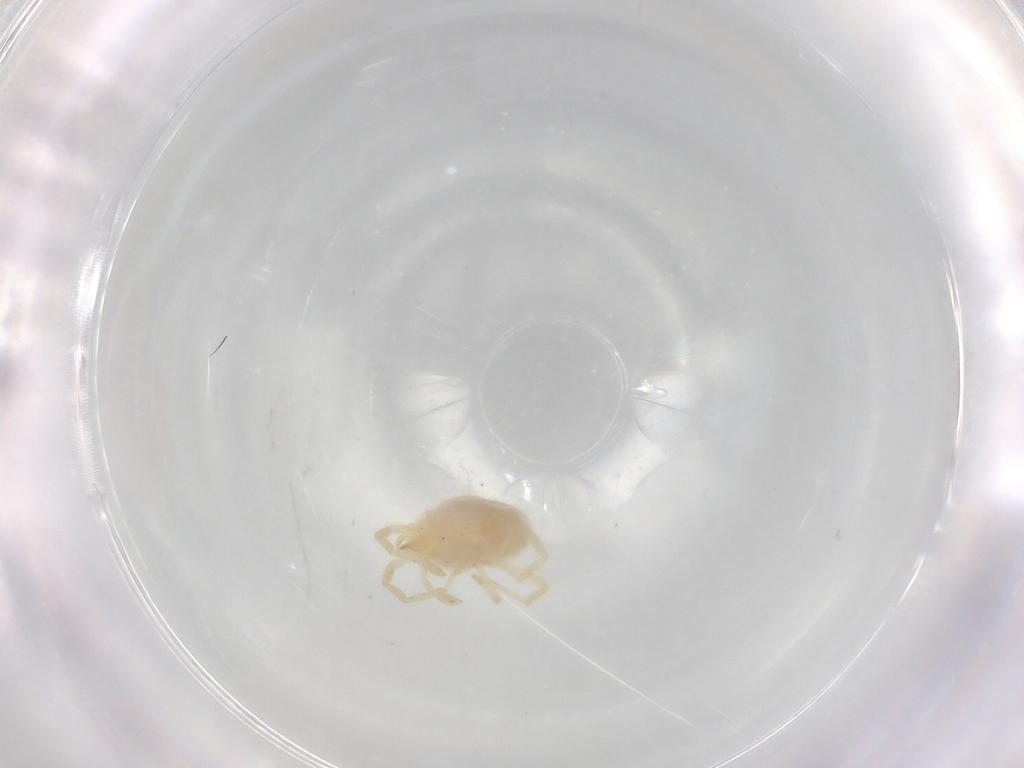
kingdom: Animalia
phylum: Arthropoda
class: Arachnida
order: Trombidiformes
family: Erythraeidae
